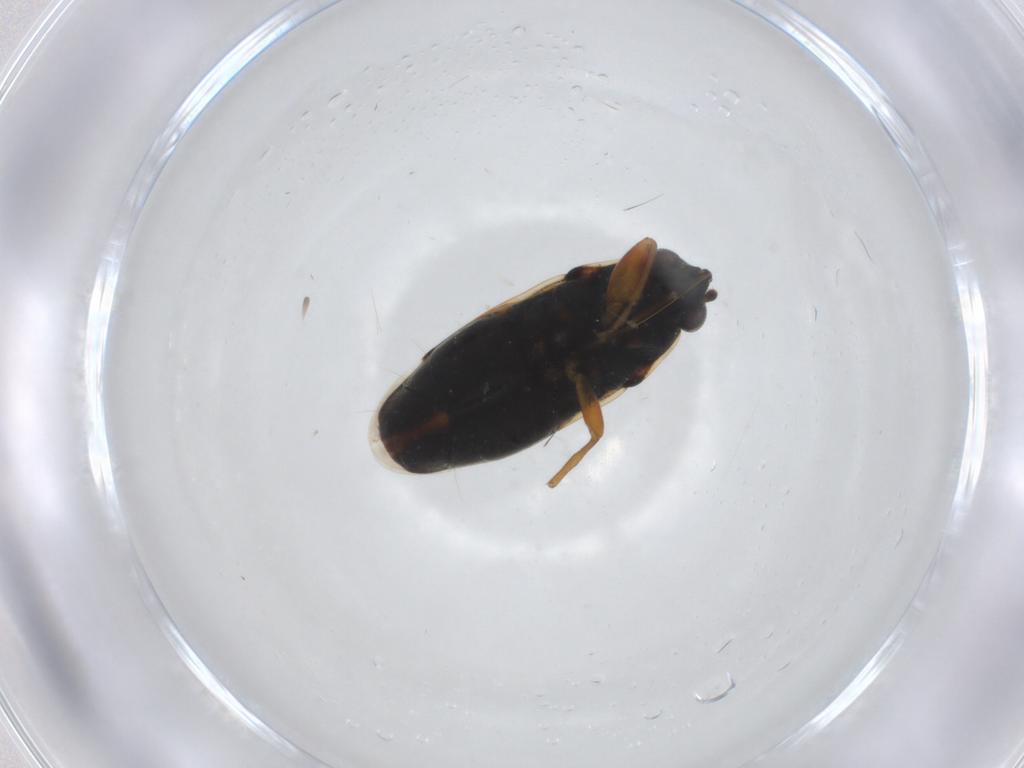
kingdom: Animalia
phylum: Arthropoda
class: Insecta
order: Hemiptera
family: Rhyparochromidae
